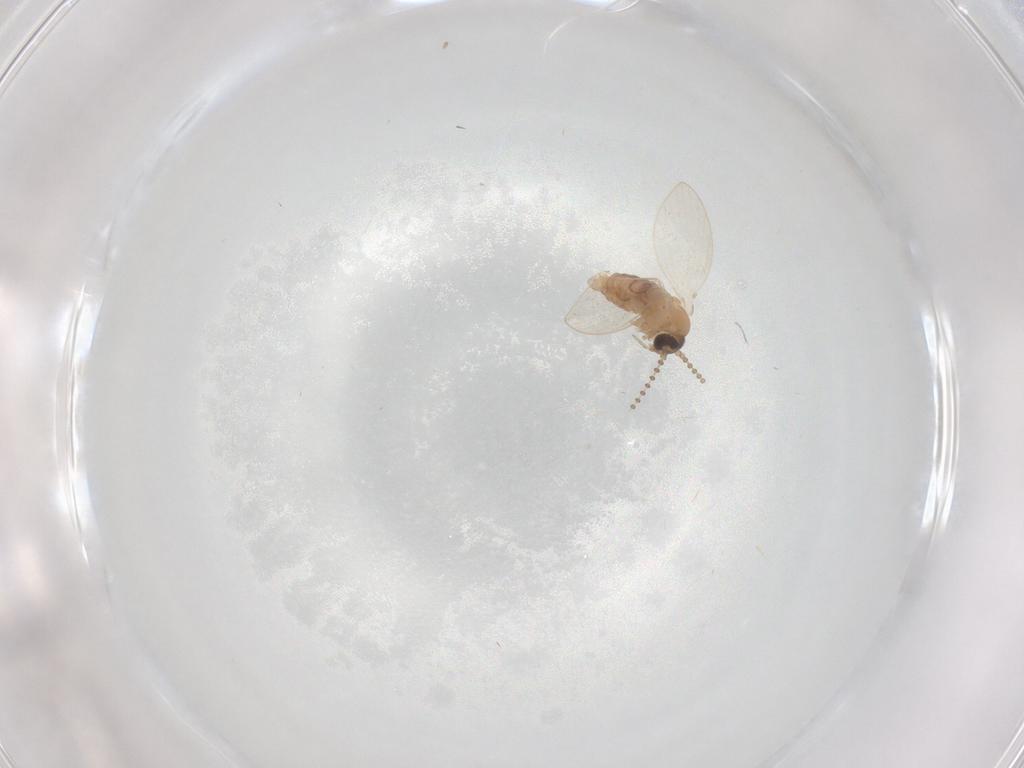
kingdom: Animalia
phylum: Arthropoda
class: Insecta
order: Diptera
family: Psychodidae
